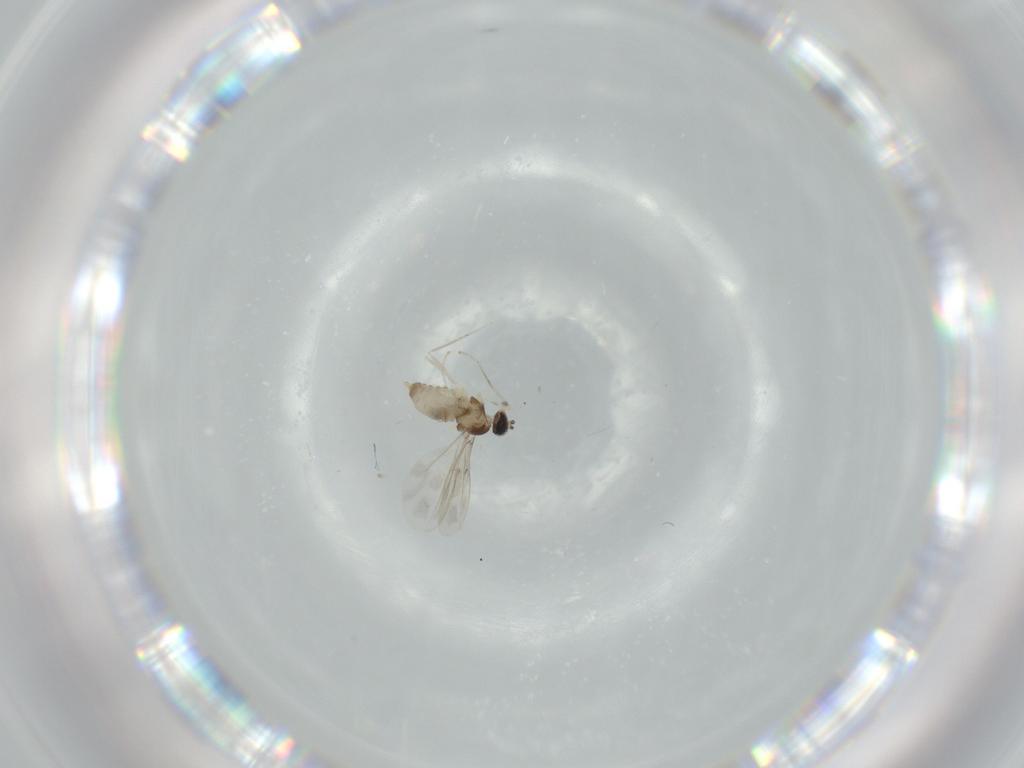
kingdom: Animalia
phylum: Arthropoda
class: Insecta
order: Diptera
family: Cecidomyiidae
